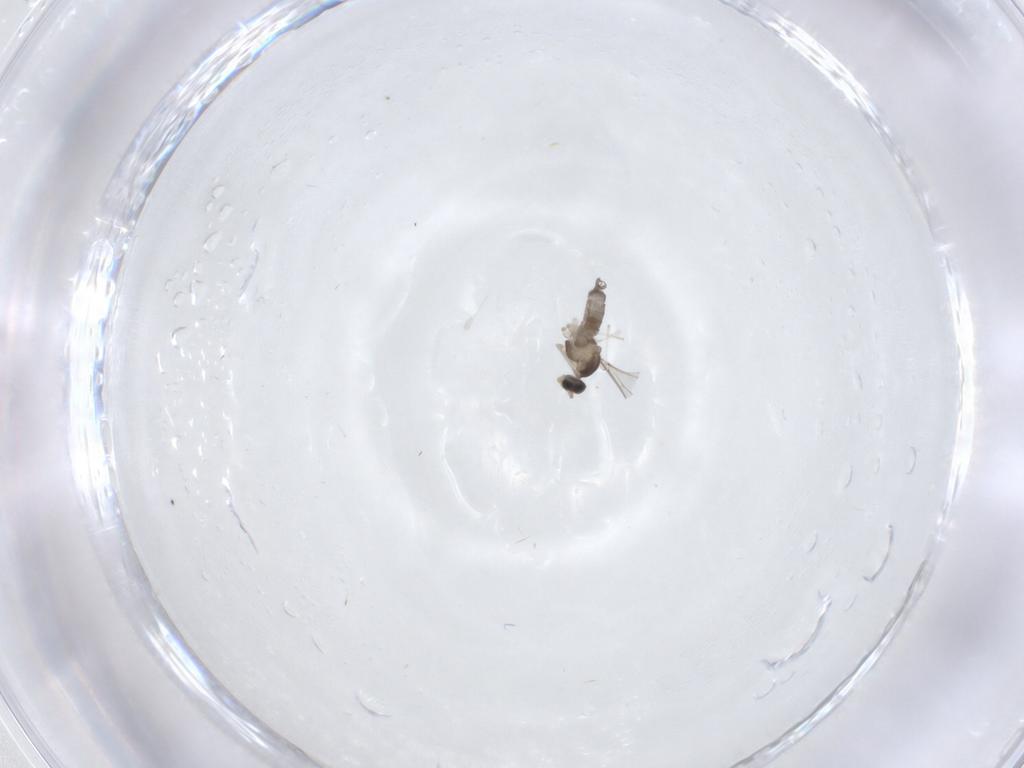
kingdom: Animalia
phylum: Arthropoda
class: Insecta
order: Diptera
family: Cecidomyiidae
